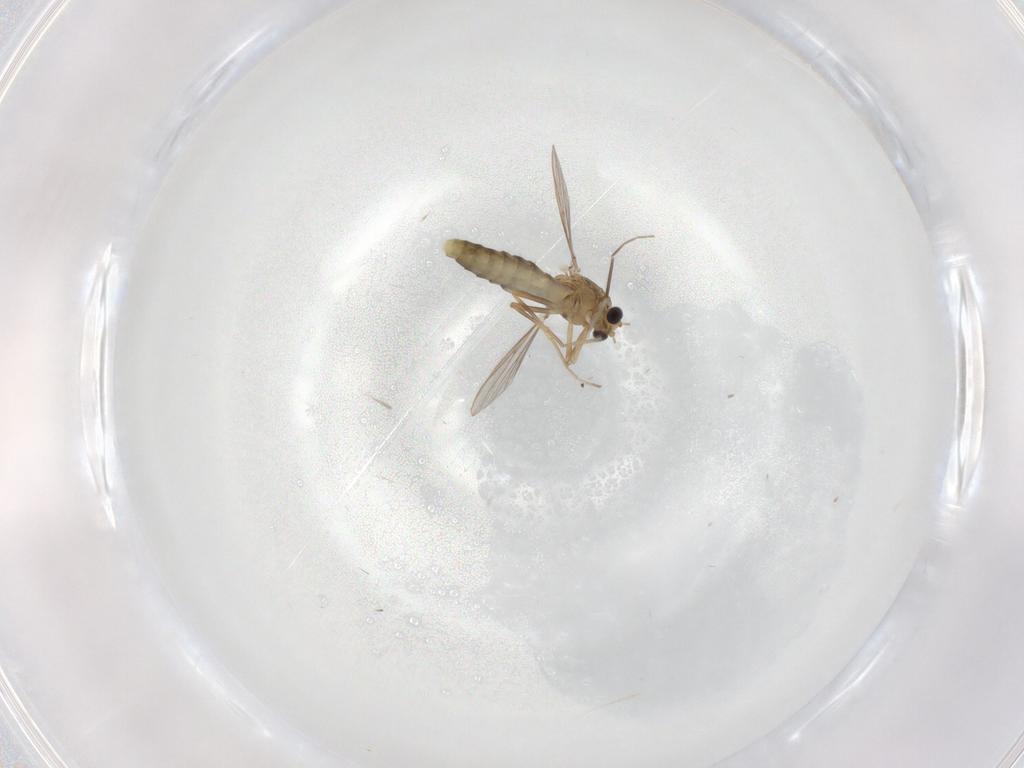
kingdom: Animalia
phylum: Arthropoda
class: Insecta
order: Diptera
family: Chironomidae
